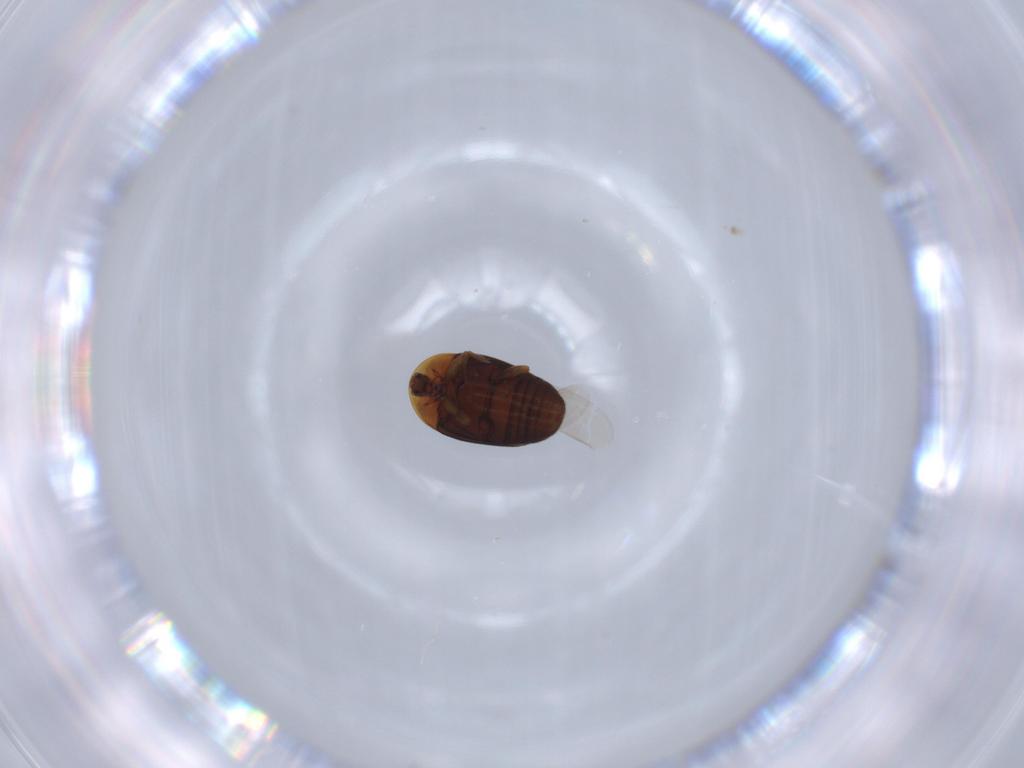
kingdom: Animalia
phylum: Arthropoda
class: Insecta
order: Coleoptera
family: Corylophidae
